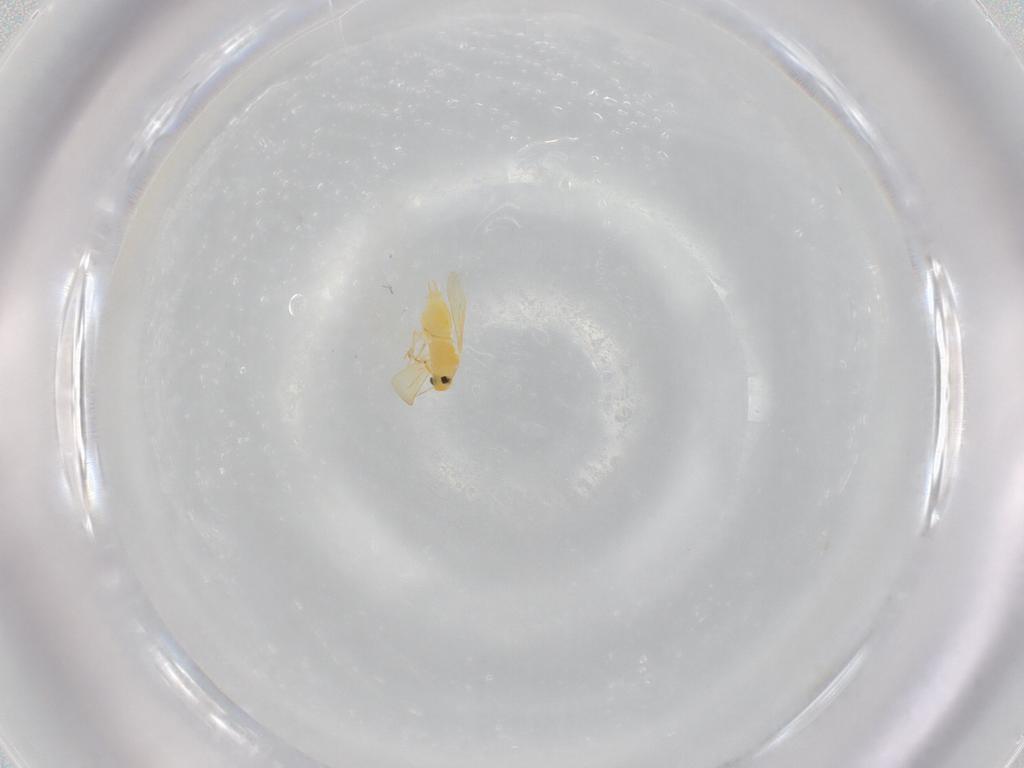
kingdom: Animalia
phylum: Arthropoda
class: Insecta
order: Hemiptera
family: Aleyrodidae
